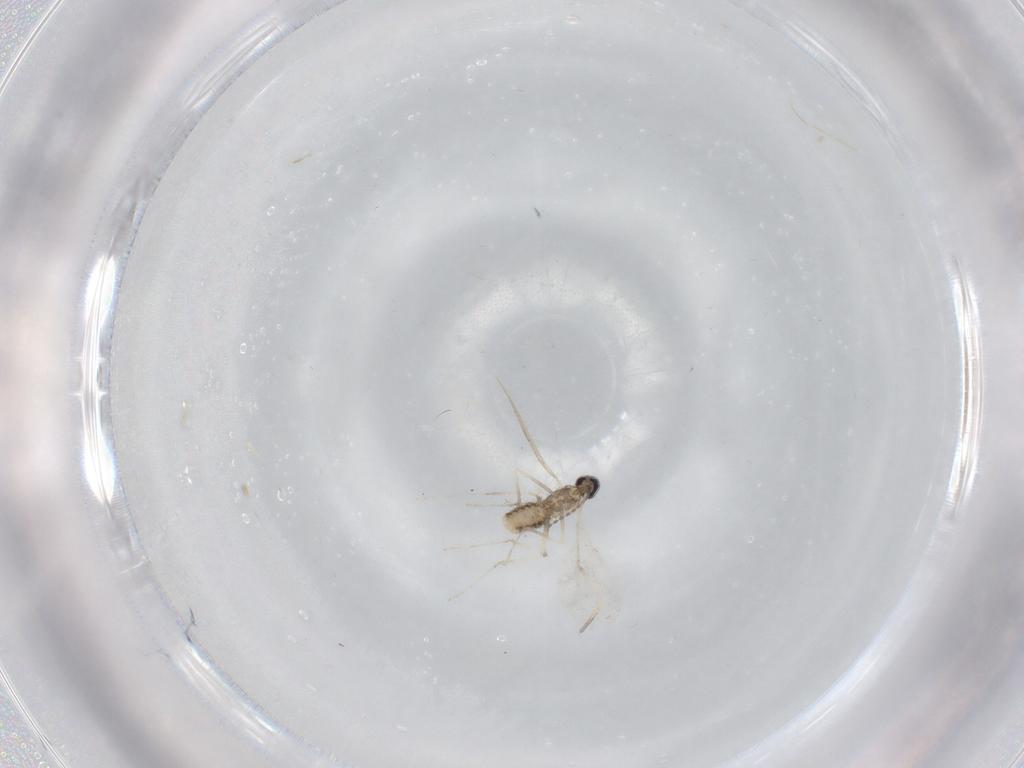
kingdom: Animalia
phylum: Arthropoda
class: Insecta
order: Diptera
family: Cecidomyiidae
